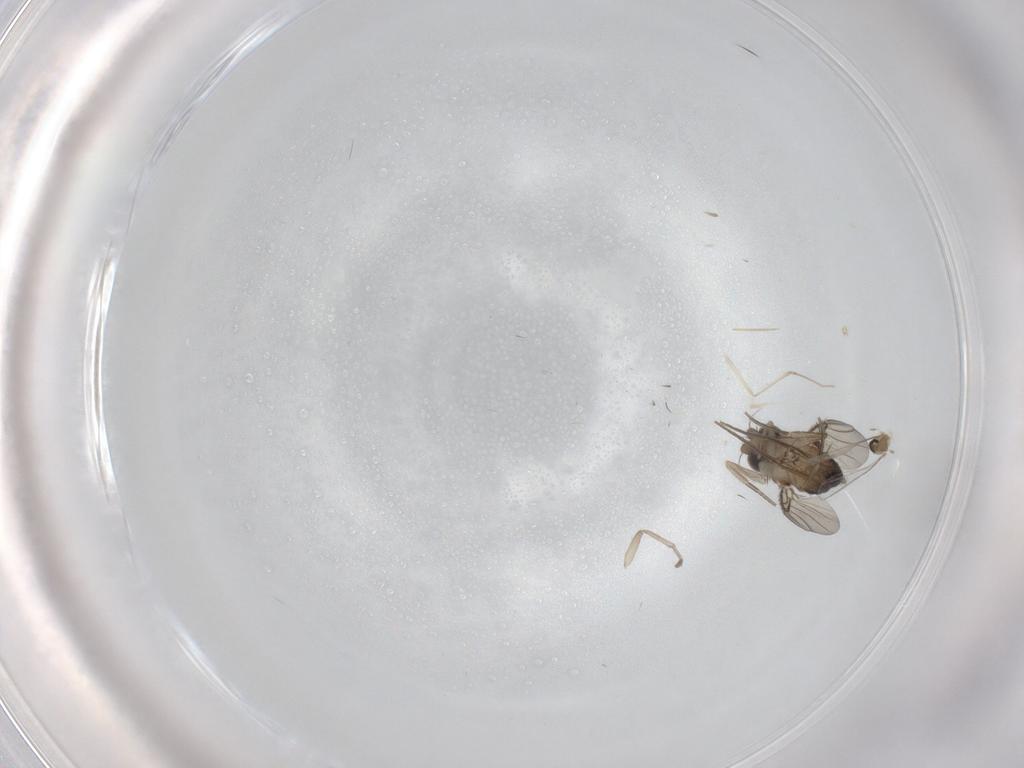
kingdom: Animalia
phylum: Arthropoda
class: Insecta
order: Diptera
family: Phoridae
